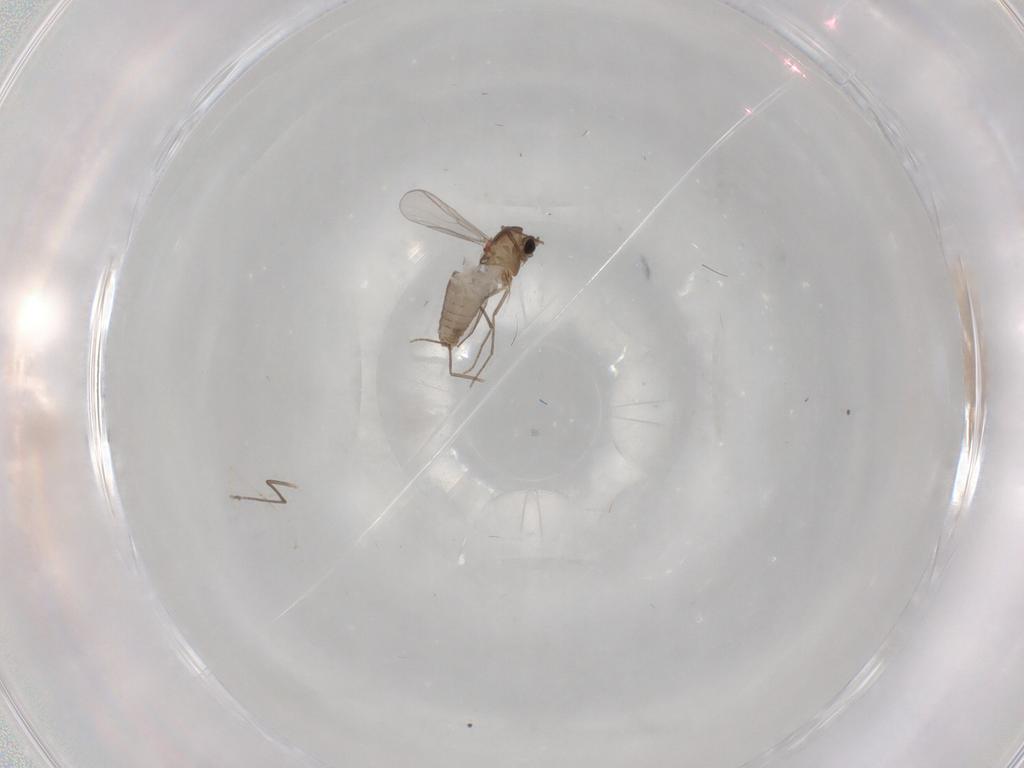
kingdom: Animalia
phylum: Arthropoda
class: Insecta
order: Diptera
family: Chironomidae
